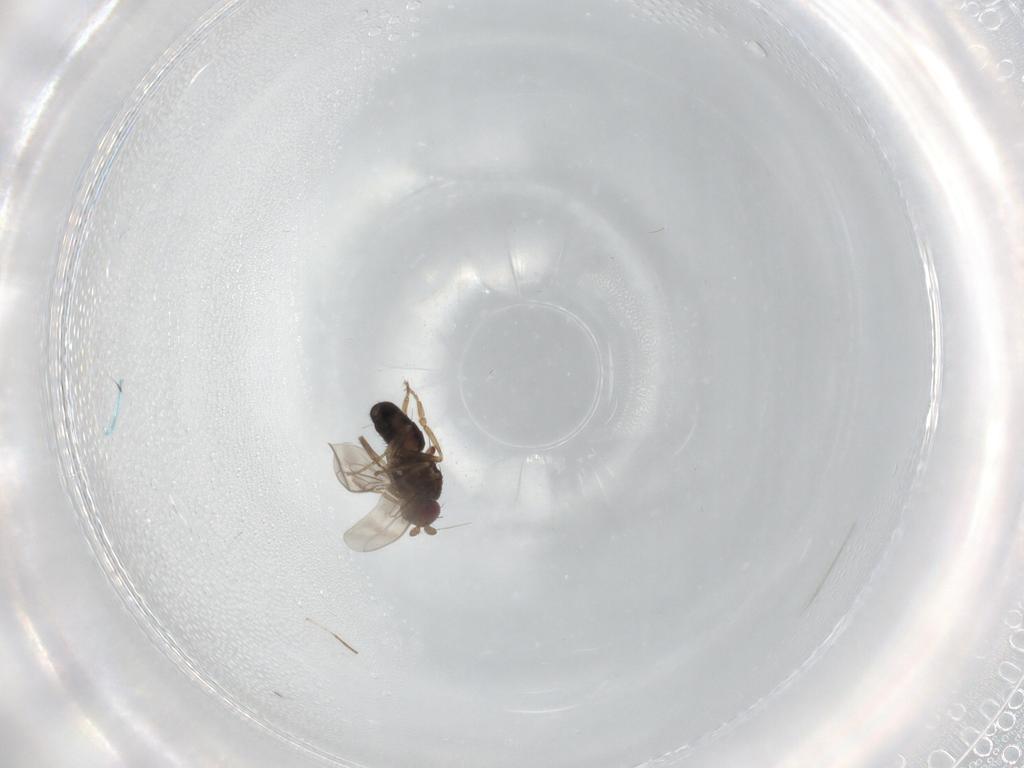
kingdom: Animalia
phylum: Arthropoda
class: Insecta
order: Diptera
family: Sphaeroceridae
